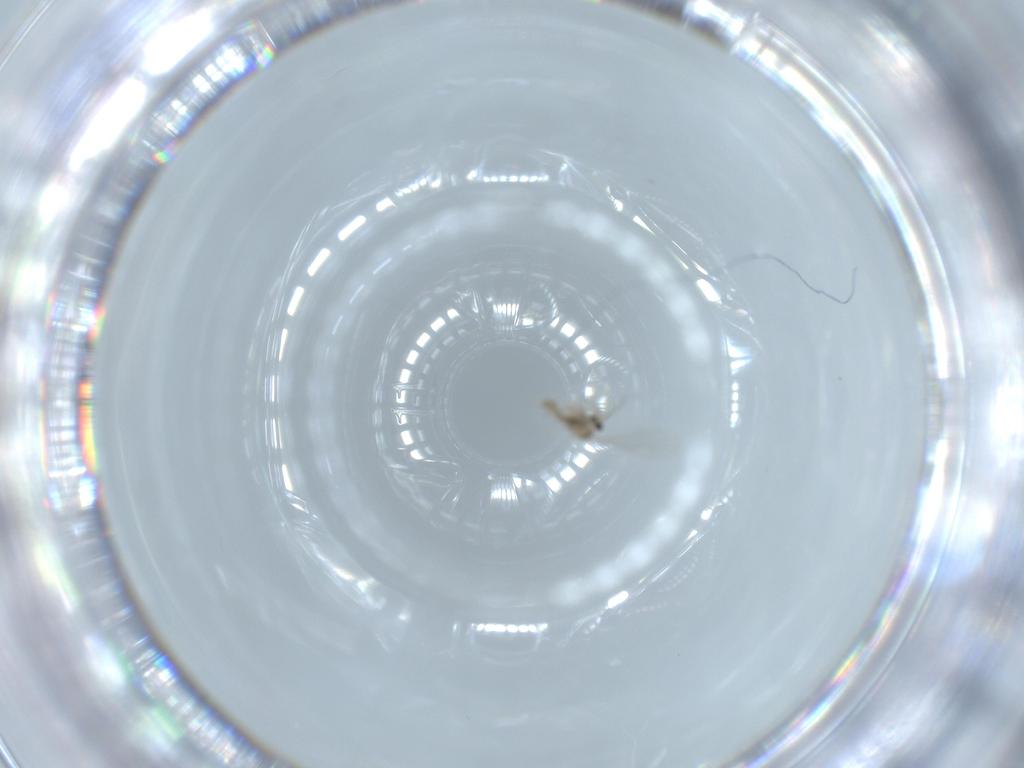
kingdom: Animalia
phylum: Arthropoda
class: Insecta
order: Diptera
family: Cecidomyiidae
